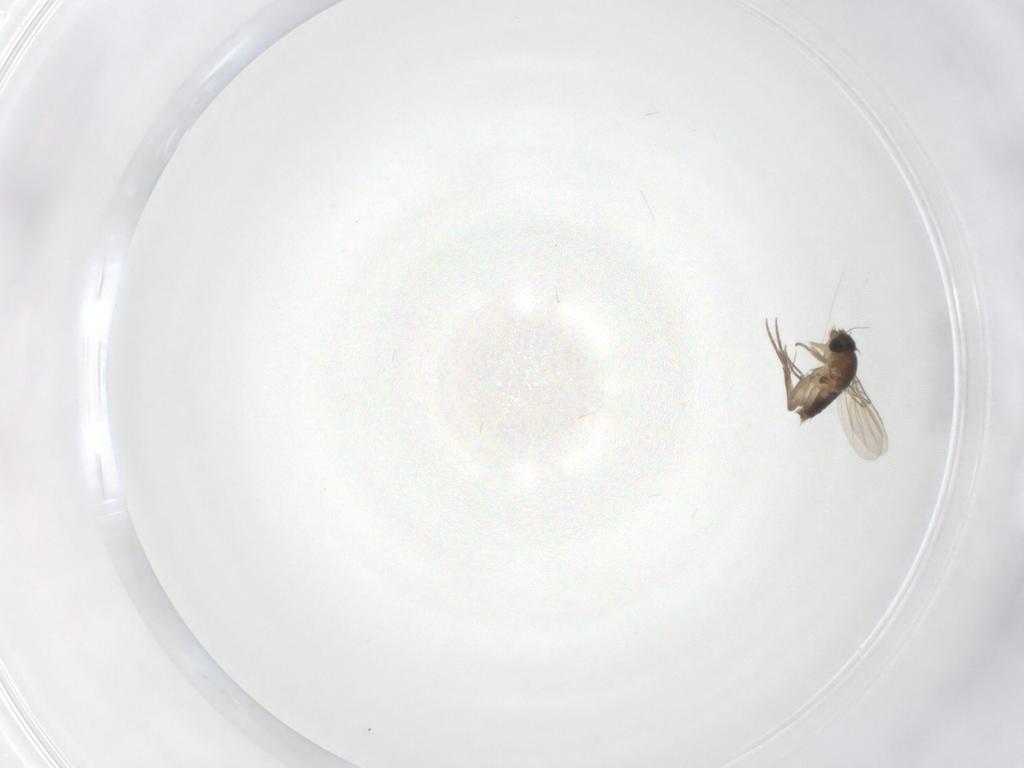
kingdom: Animalia
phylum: Arthropoda
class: Insecta
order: Diptera
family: Phoridae
